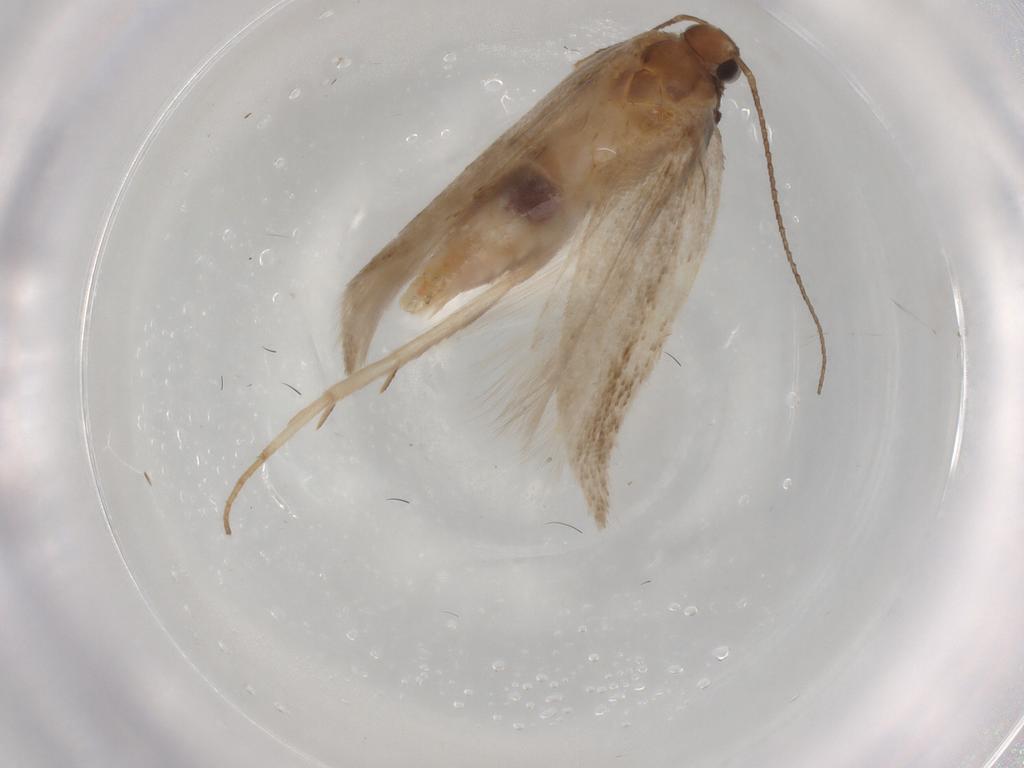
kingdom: Animalia
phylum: Arthropoda
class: Insecta
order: Lepidoptera
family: Gelechiidae
